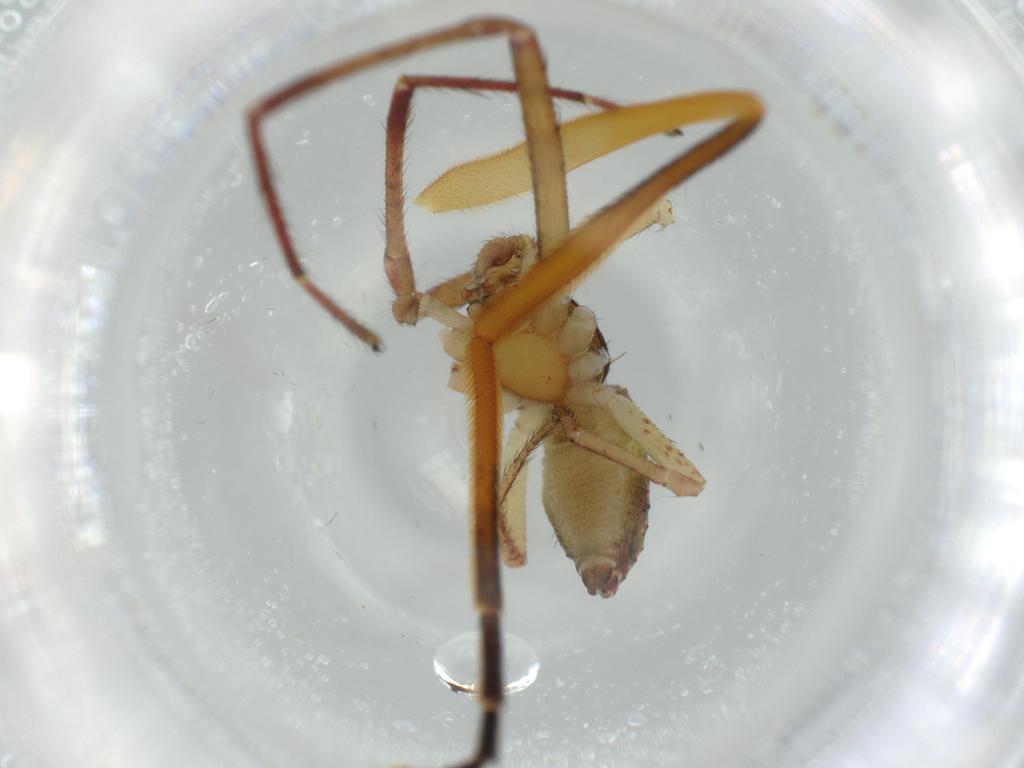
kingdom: Animalia
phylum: Arthropoda
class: Arachnida
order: Araneae
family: Thomisidae
